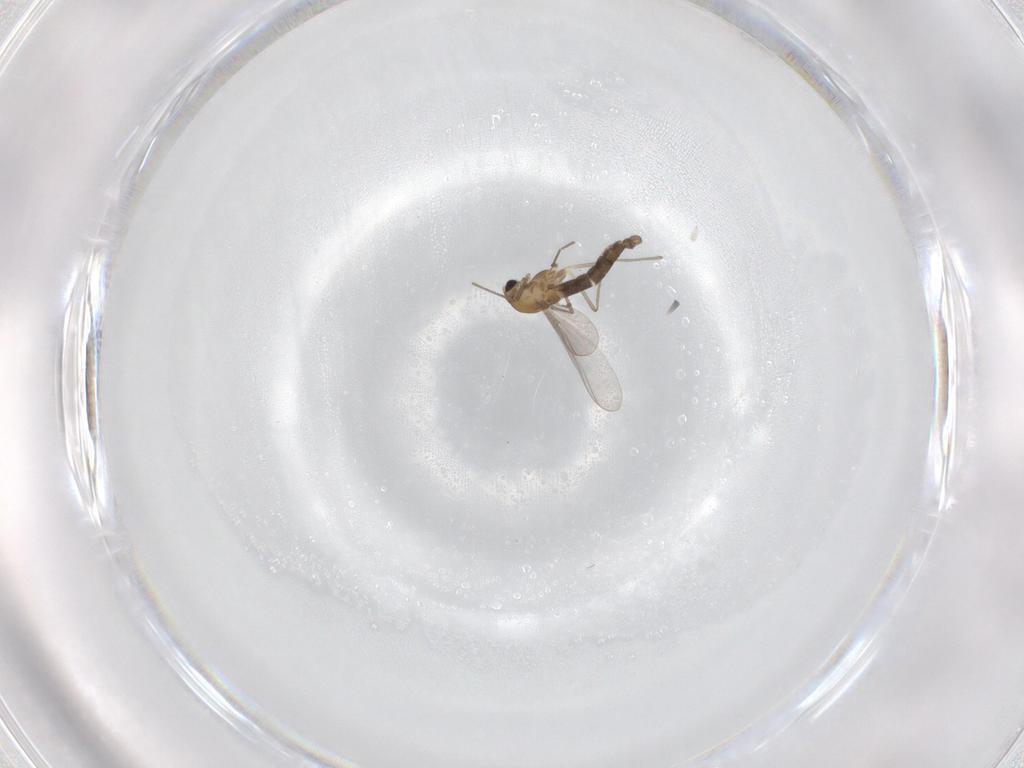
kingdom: Animalia
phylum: Arthropoda
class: Insecta
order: Diptera
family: Chironomidae
